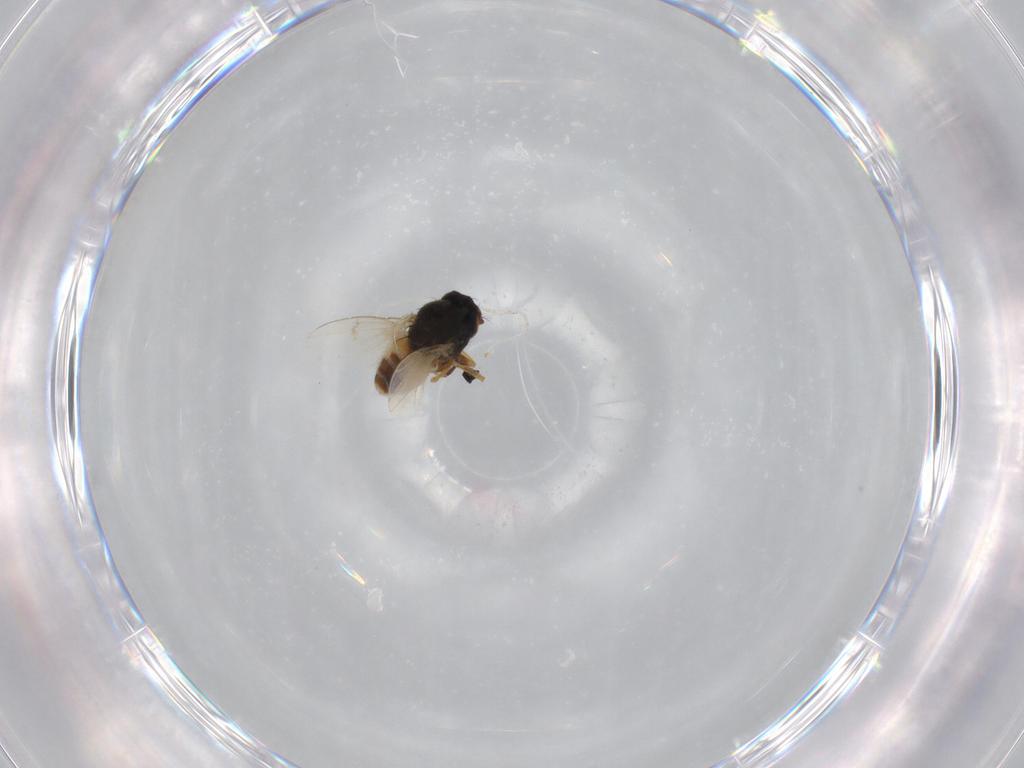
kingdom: Animalia
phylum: Arthropoda
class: Insecta
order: Diptera
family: Ephydridae
